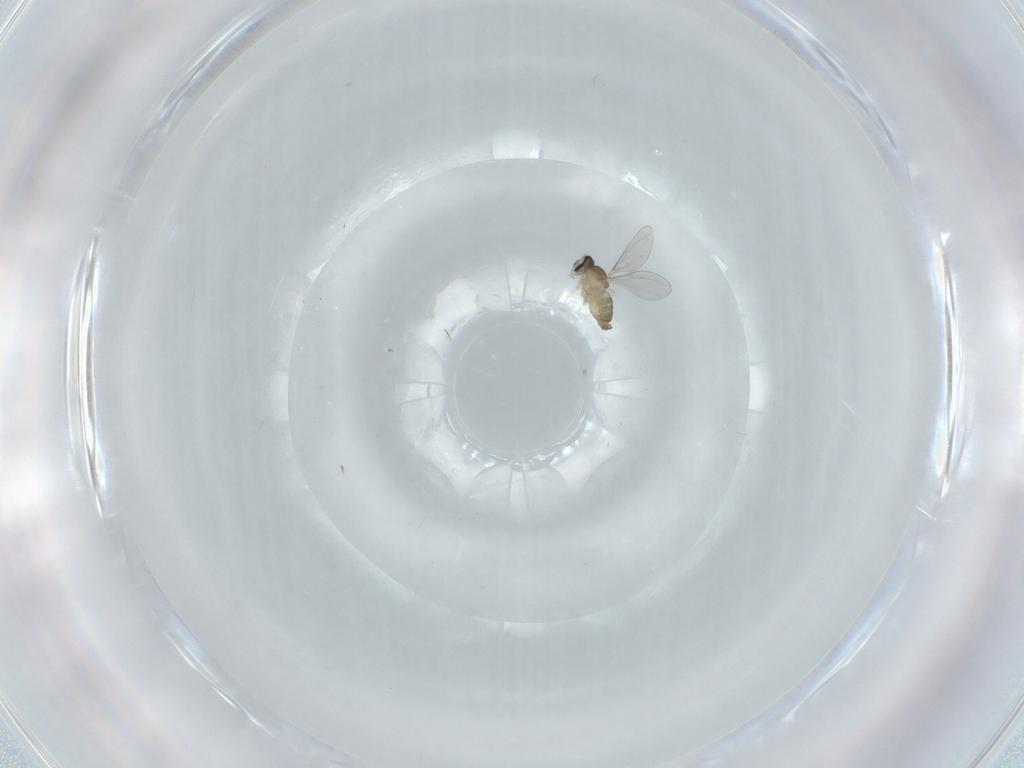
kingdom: Animalia
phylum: Arthropoda
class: Insecta
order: Diptera
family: Cecidomyiidae
